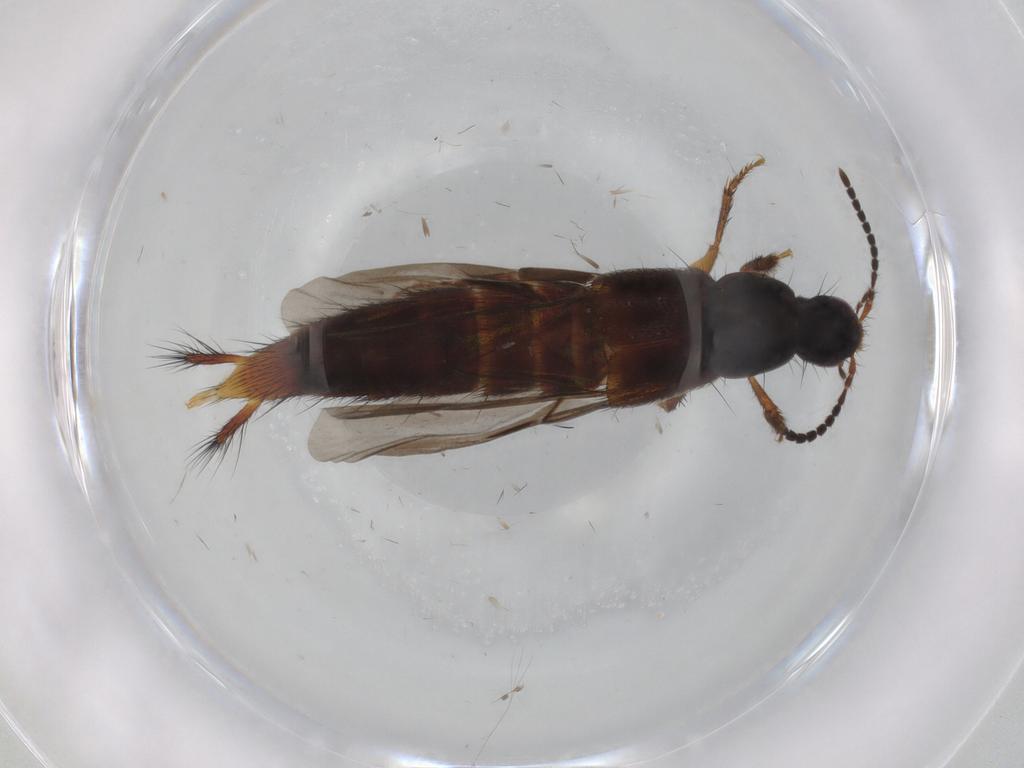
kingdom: Animalia
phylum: Arthropoda
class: Insecta
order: Coleoptera
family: Staphylinidae
